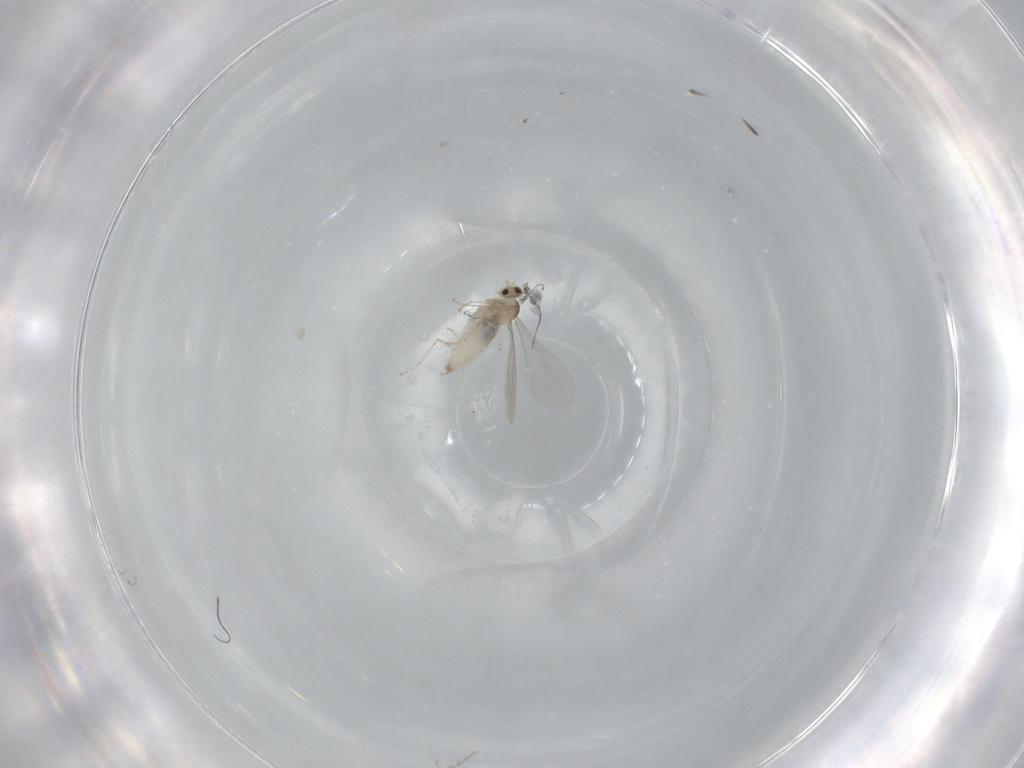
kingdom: Animalia
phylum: Arthropoda
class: Insecta
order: Diptera
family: Cecidomyiidae
